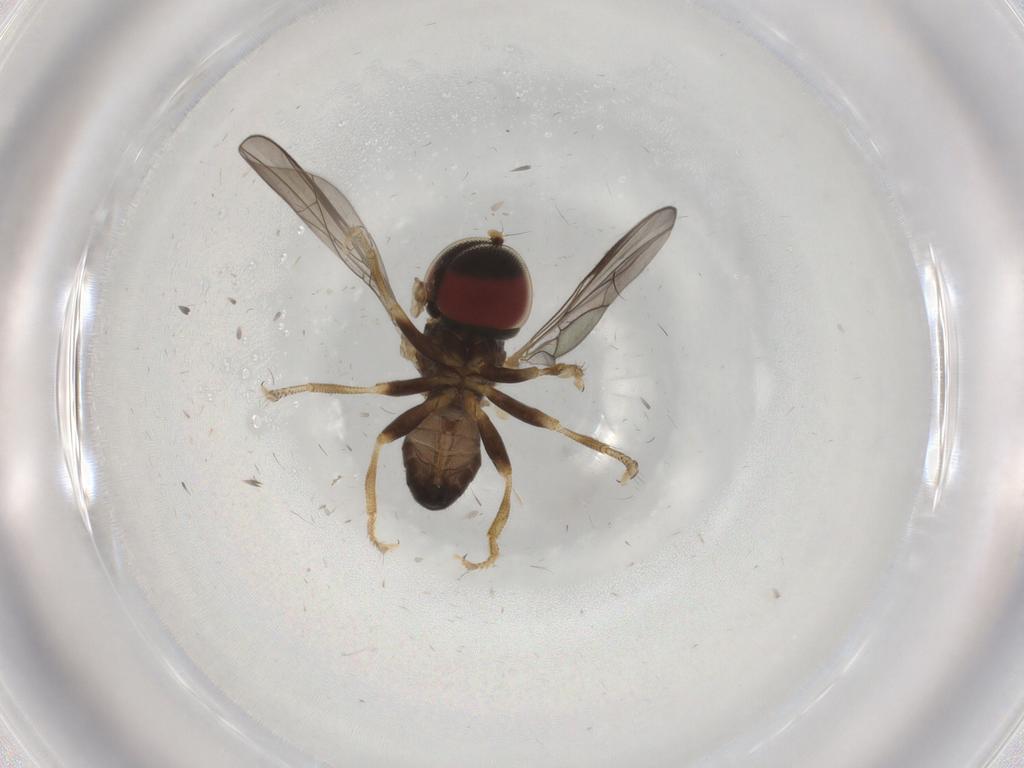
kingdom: Animalia
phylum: Arthropoda
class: Insecta
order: Diptera
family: Pipunculidae
